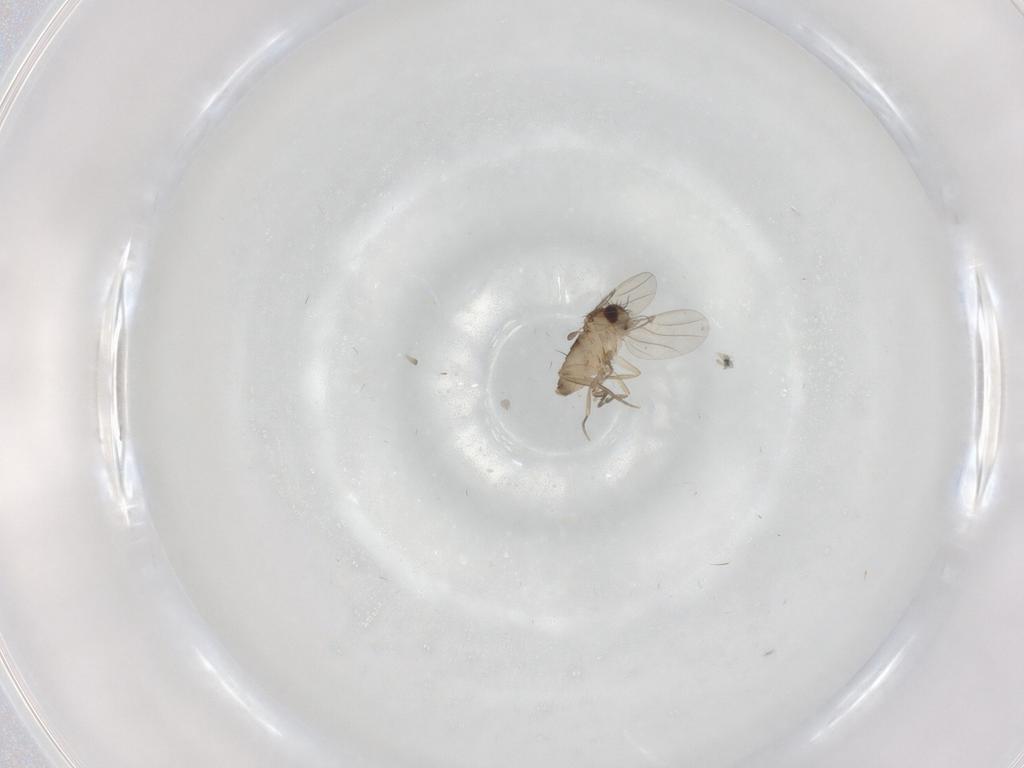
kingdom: Animalia
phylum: Arthropoda
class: Insecta
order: Diptera
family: Phoridae
